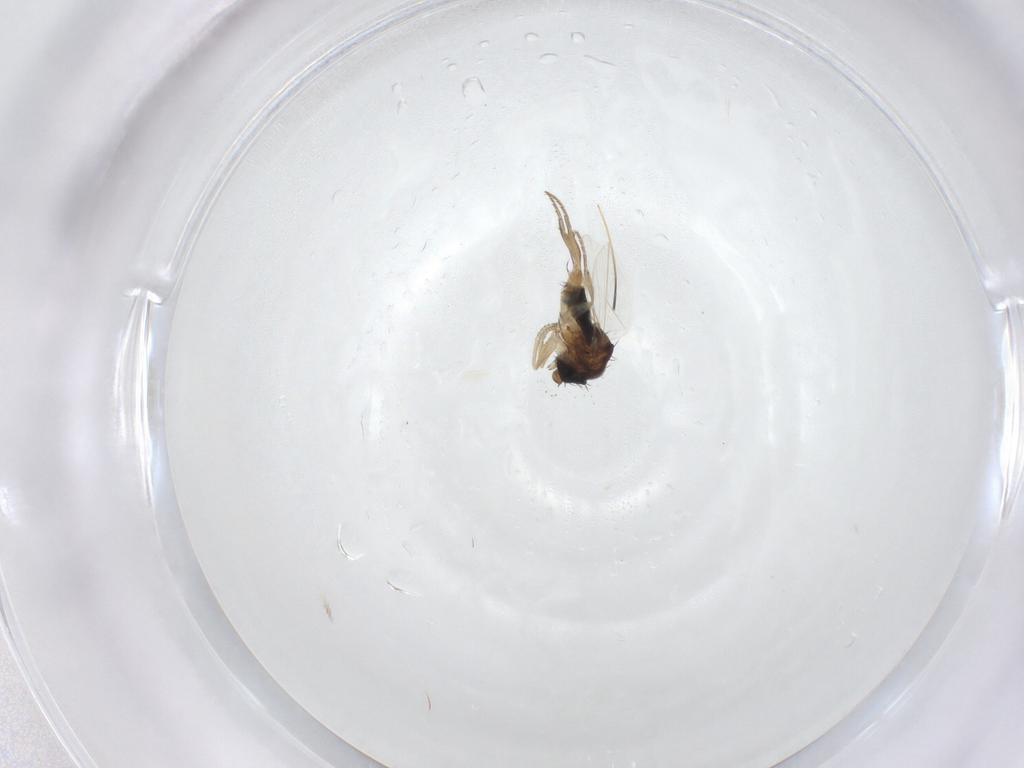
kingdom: Animalia
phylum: Arthropoda
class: Insecta
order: Diptera
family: Phoridae
